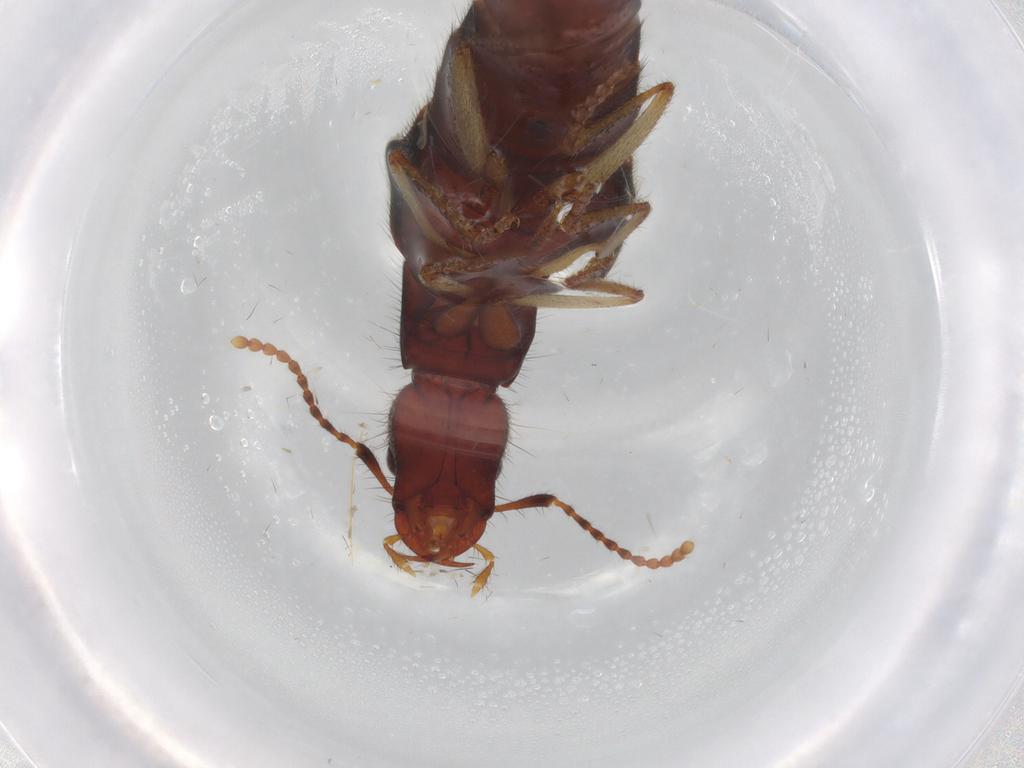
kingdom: Animalia
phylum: Arthropoda
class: Insecta
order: Coleoptera
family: Staphylinidae
